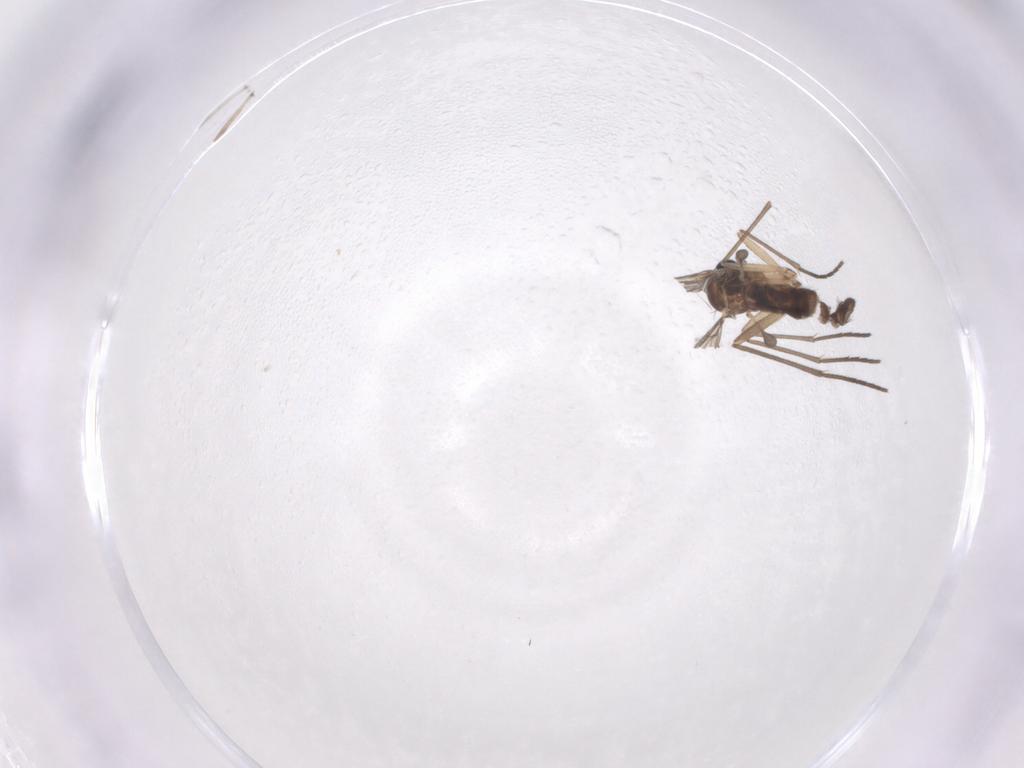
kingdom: Animalia
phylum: Arthropoda
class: Insecta
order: Diptera
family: Sciaridae
